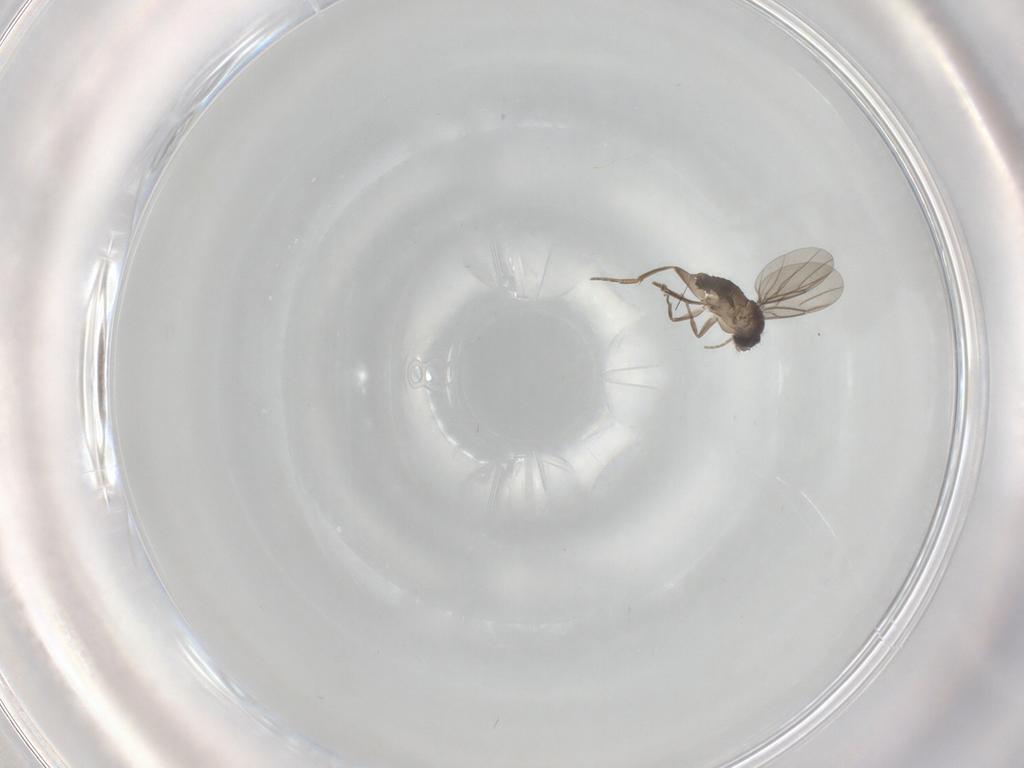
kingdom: Animalia
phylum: Arthropoda
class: Insecta
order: Diptera
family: Phoridae
